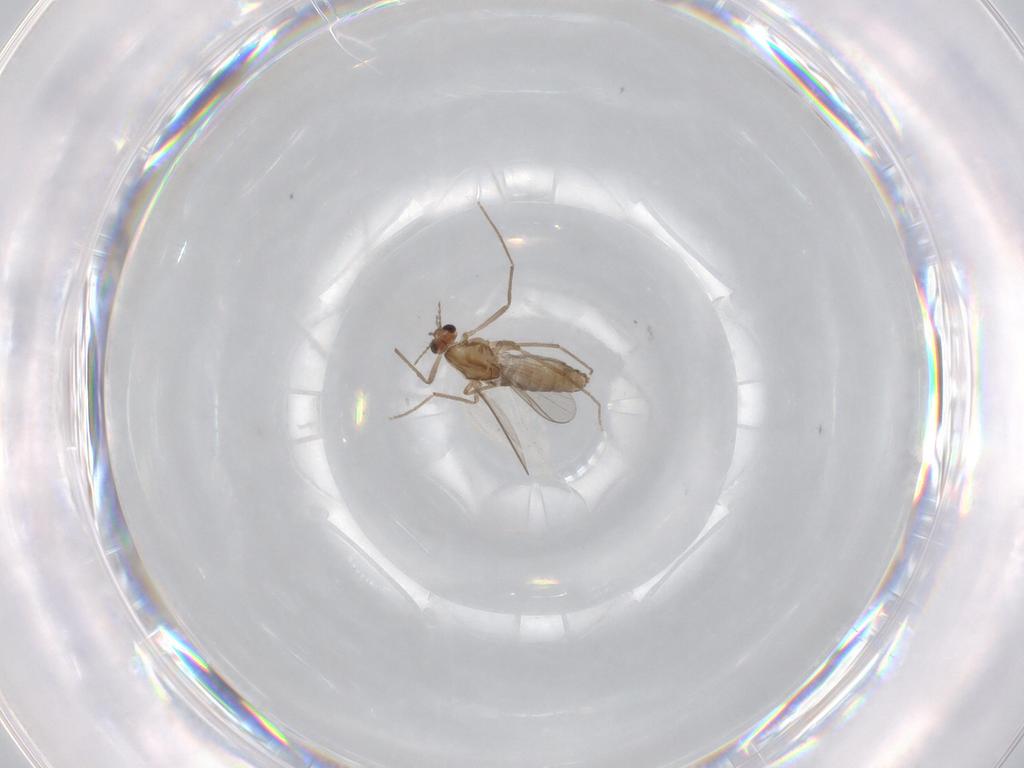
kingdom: Animalia
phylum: Arthropoda
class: Insecta
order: Diptera
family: Chironomidae
